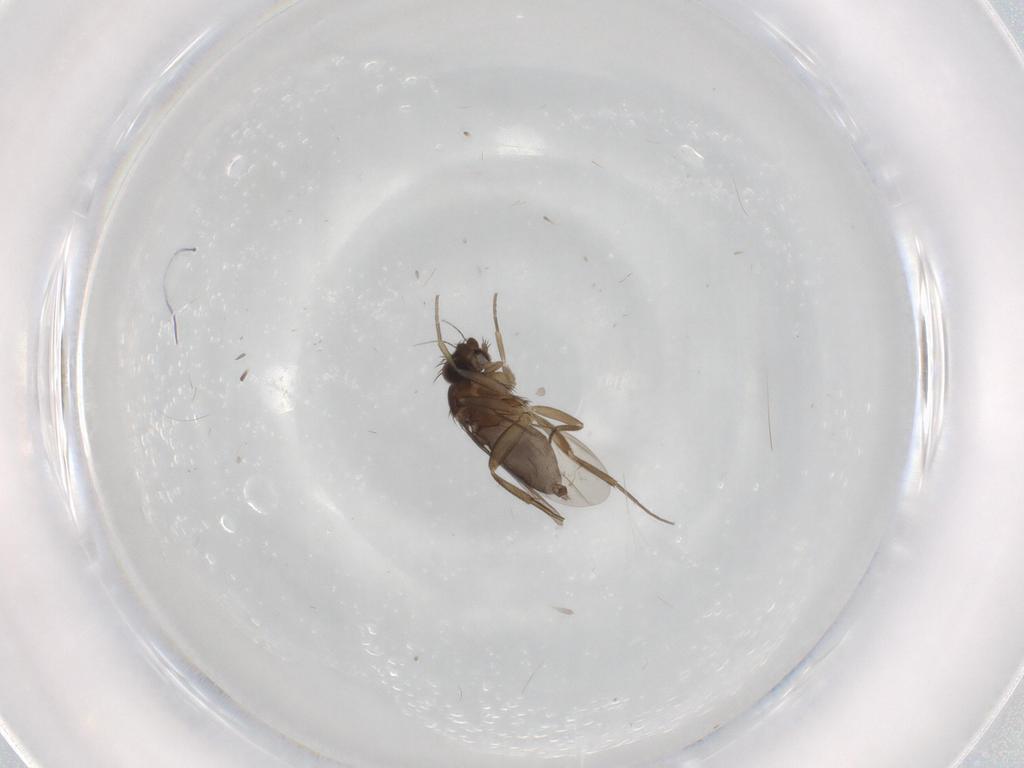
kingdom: Animalia
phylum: Arthropoda
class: Insecta
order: Diptera
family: Phoridae
